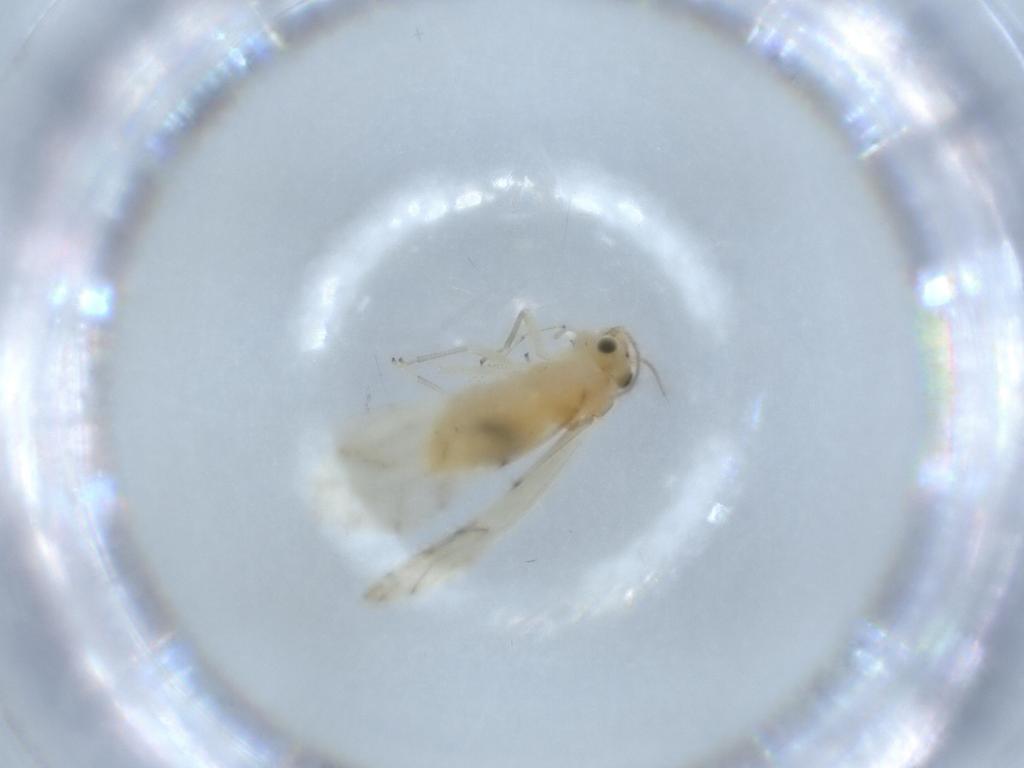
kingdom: Animalia
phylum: Arthropoda
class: Insecta
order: Psocodea
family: Caeciliusidae
